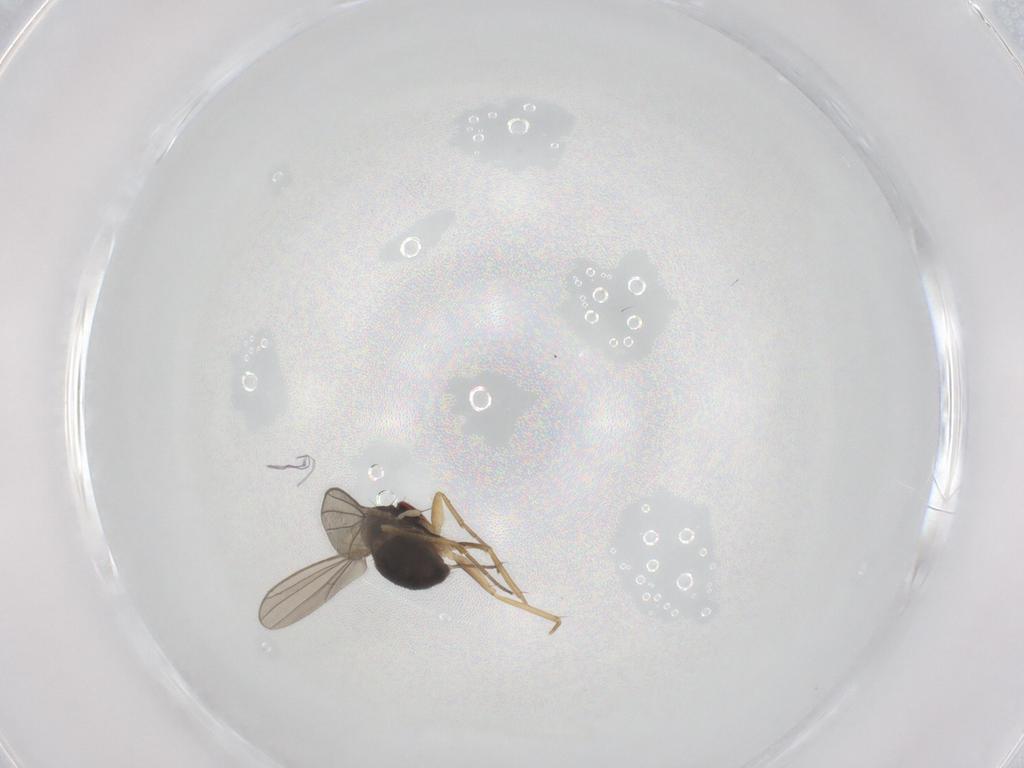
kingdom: Animalia
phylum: Arthropoda
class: Insecta
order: Diptera
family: Dolichopodidae
